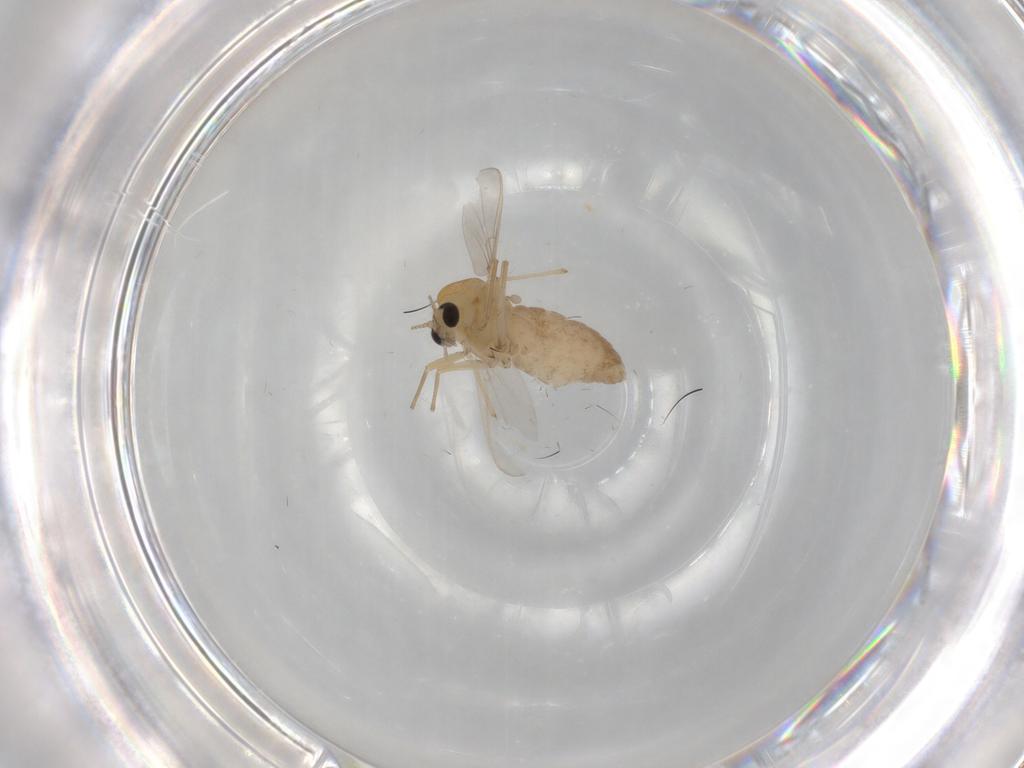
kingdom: Animalia
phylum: Arthropoda
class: Insecta
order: Diptera
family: Chironomidae
